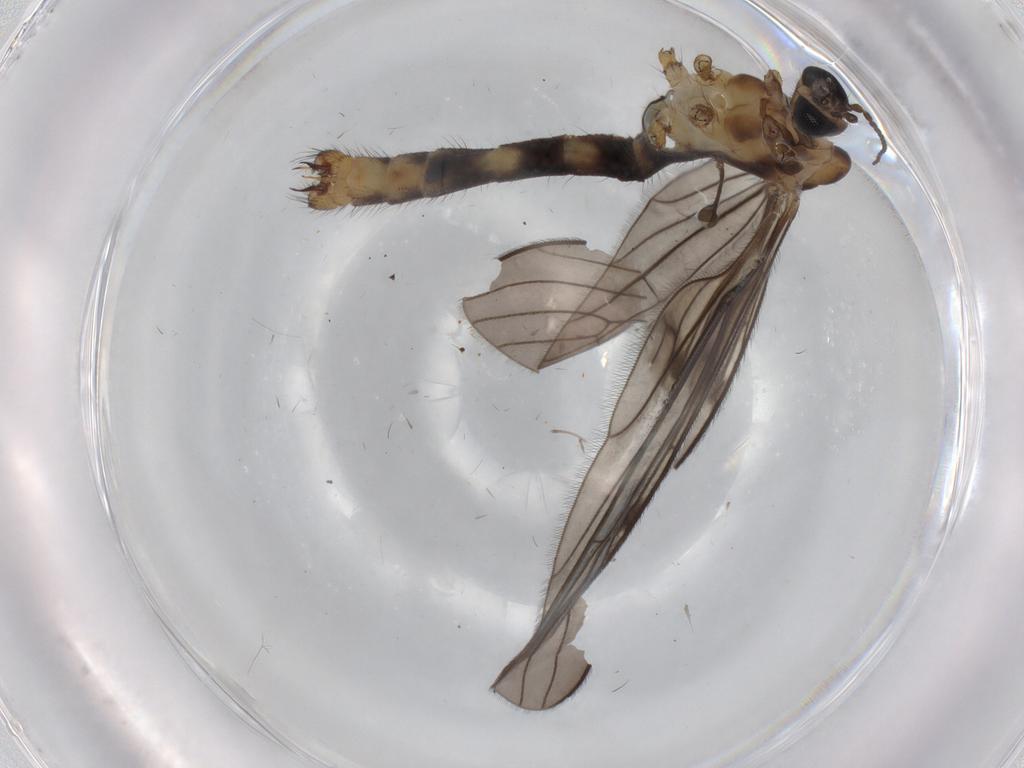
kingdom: Animalia
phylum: Arthropoda
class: Insecta
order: Diptera
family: Limoniidae
